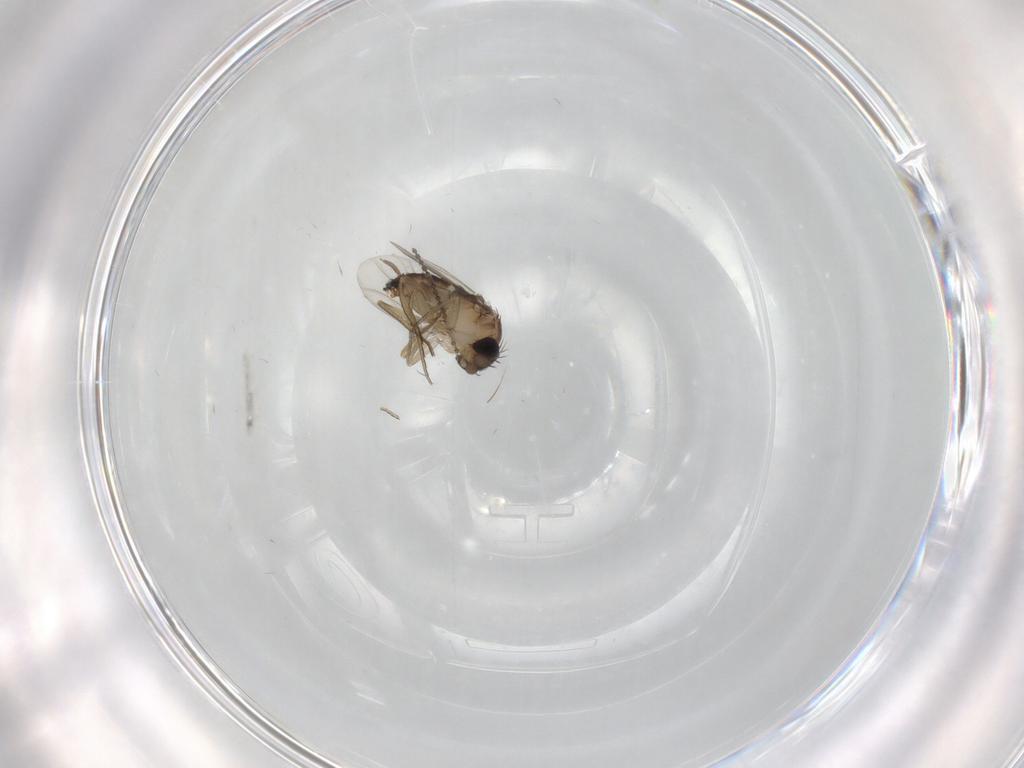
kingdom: Animalia
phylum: Arthropoda
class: Insecta
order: Diptera
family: Cecidomyiidae
